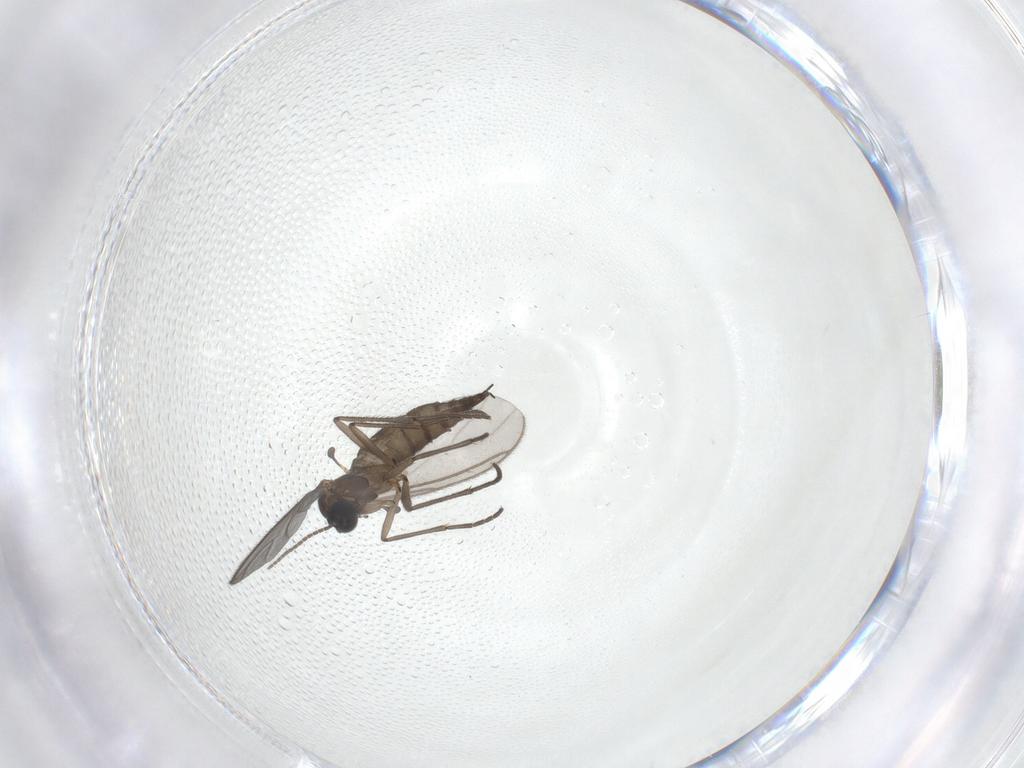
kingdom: Animalia
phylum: Arthropoda
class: Insecta
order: Diptera
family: Sciaridae
